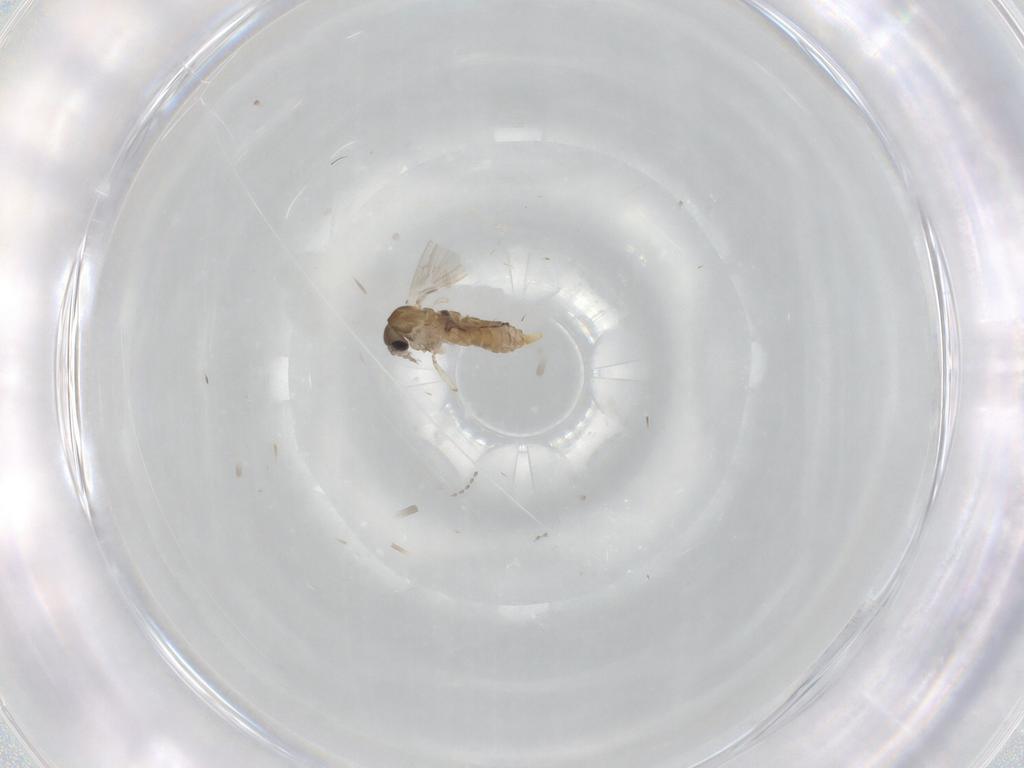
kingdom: Animalia
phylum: Arthropoda
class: Insecta
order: Diptera
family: Psychodidae
